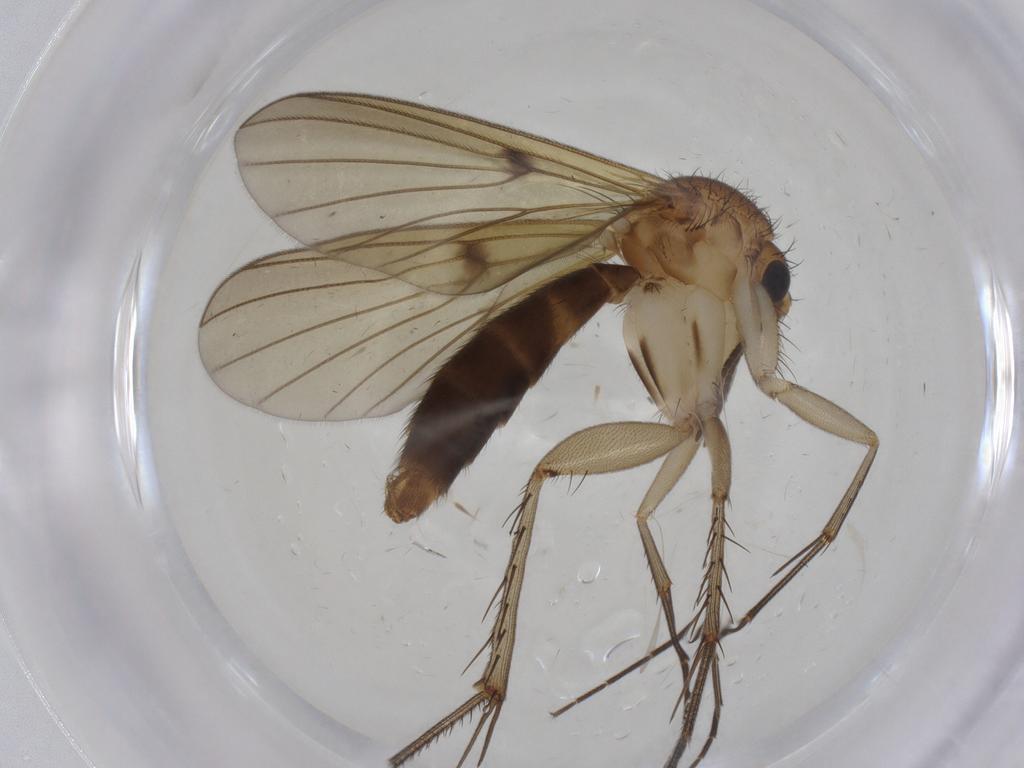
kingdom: Animalia
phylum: Arthropoda
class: Insecta
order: Diptera
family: Mycetophilidae
